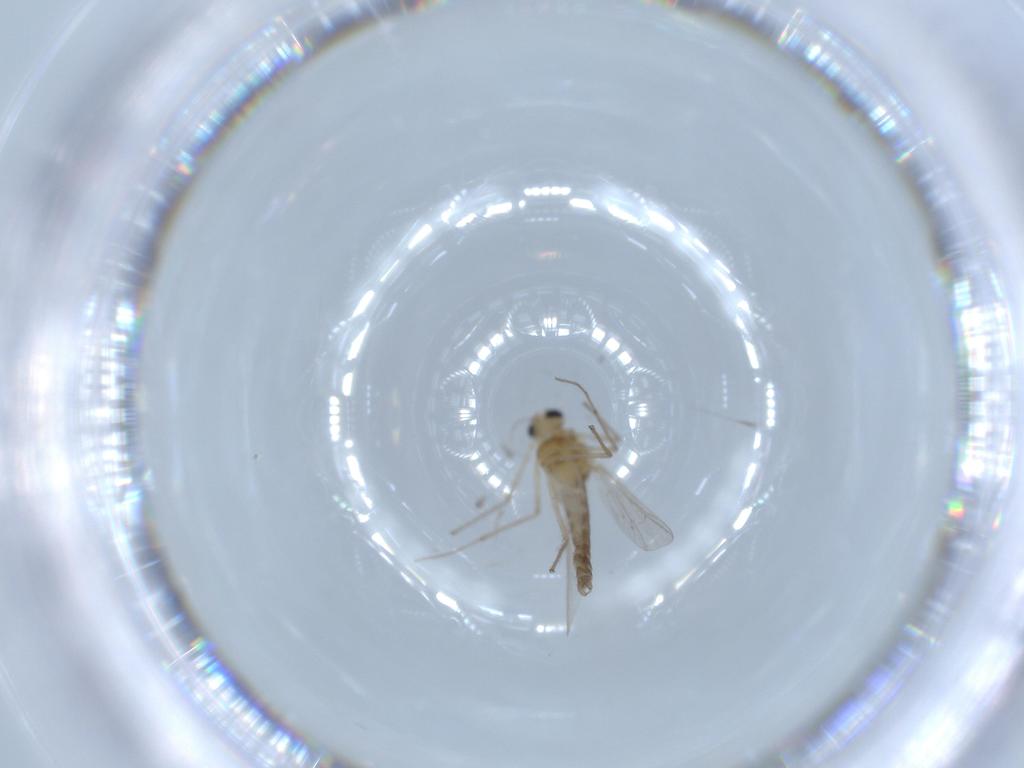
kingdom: Animalia
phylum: Arthropoda
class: Insecta
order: Diptera
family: Chironomidae
